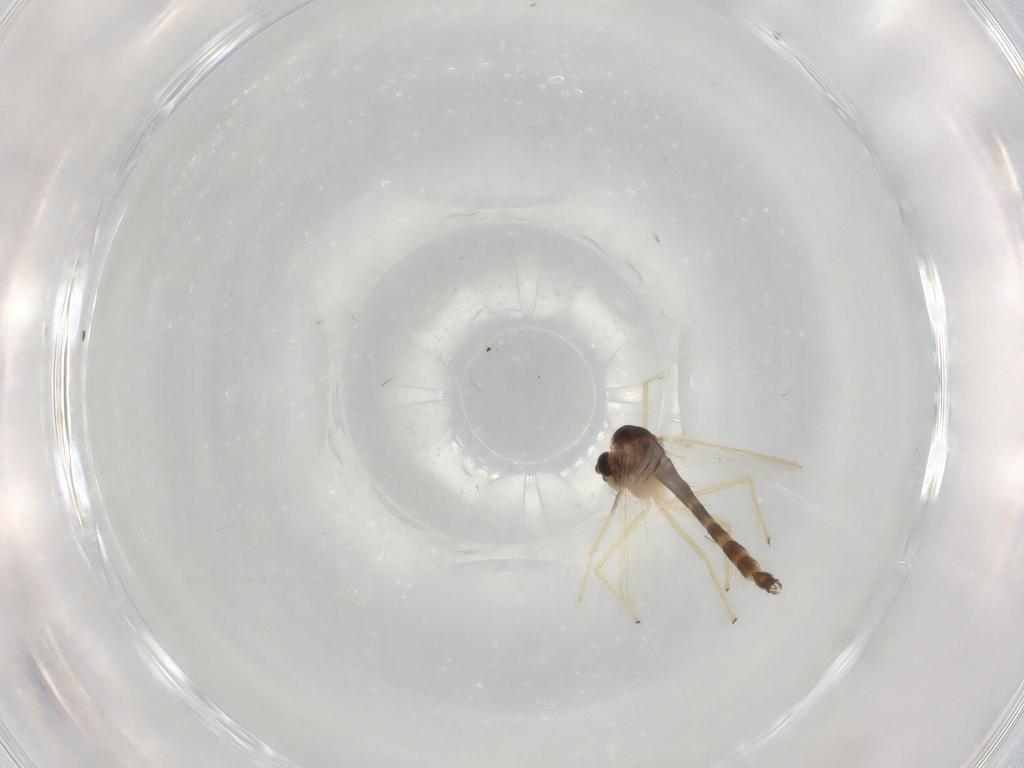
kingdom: Animalia
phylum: Arthropoda
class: Insecta
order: Diptera
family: Chironomidae
